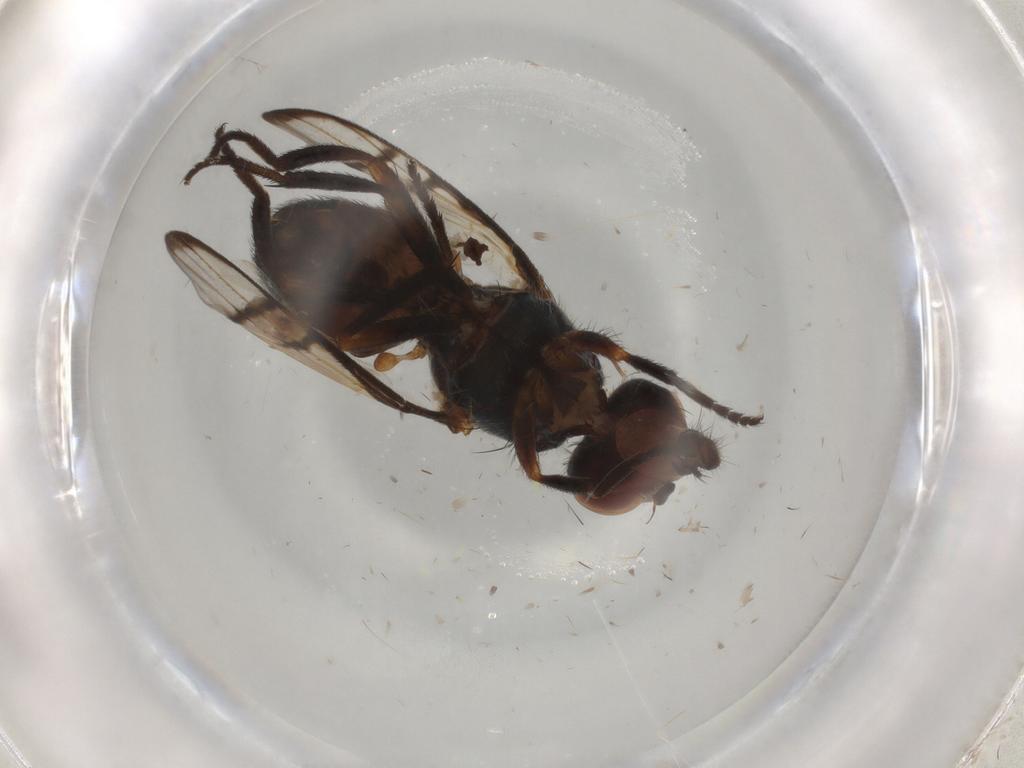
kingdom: Animalia
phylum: Arthropoda
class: Insecta
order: Diptera
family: Platystomatidae
